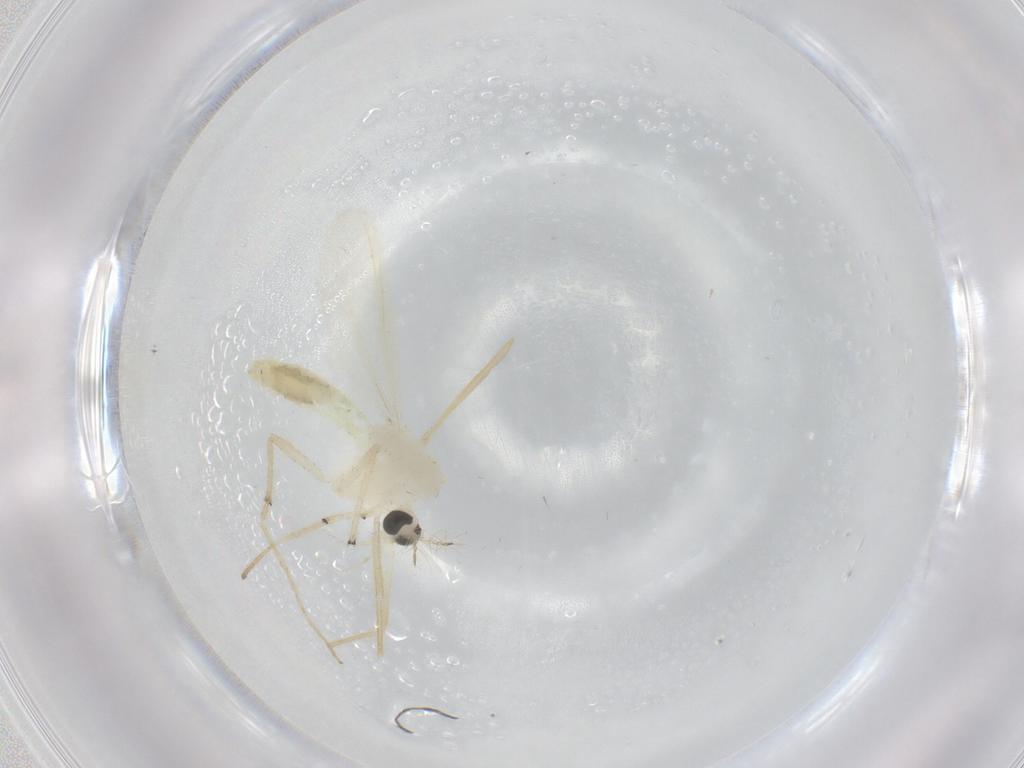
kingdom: Animalia
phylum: Arthropoda
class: Insecta
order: Diptera
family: Chironomidae
